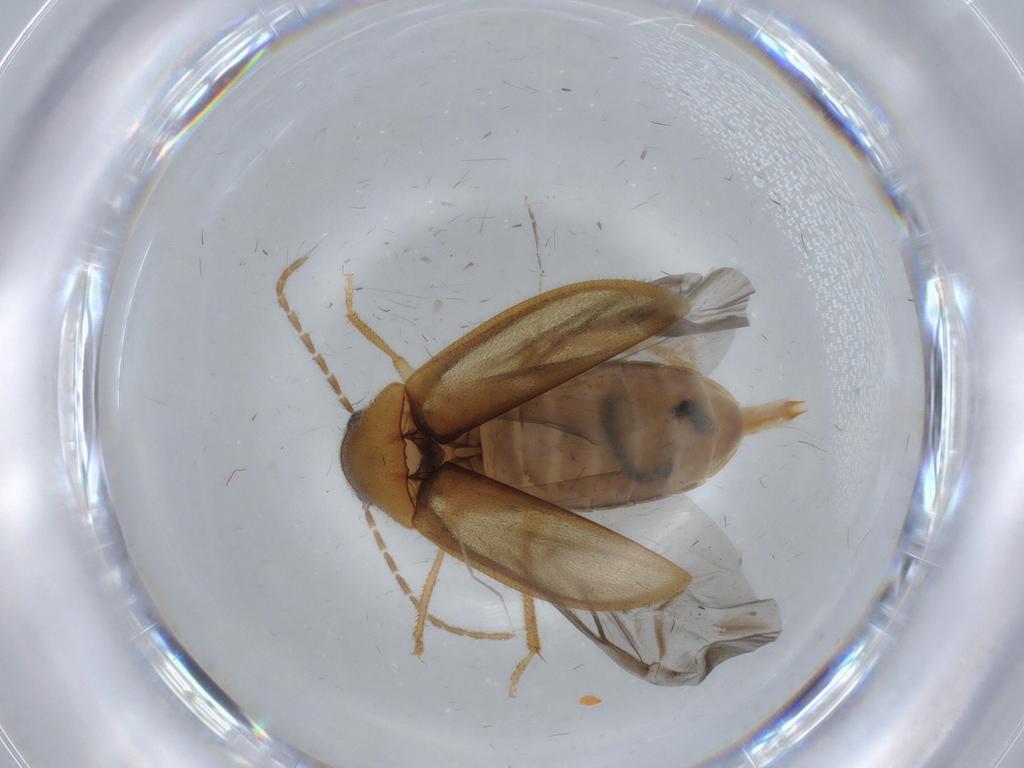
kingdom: Animalia
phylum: Arthropoda
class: Insecta
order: Coleoptera
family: Ptilodactylidae
